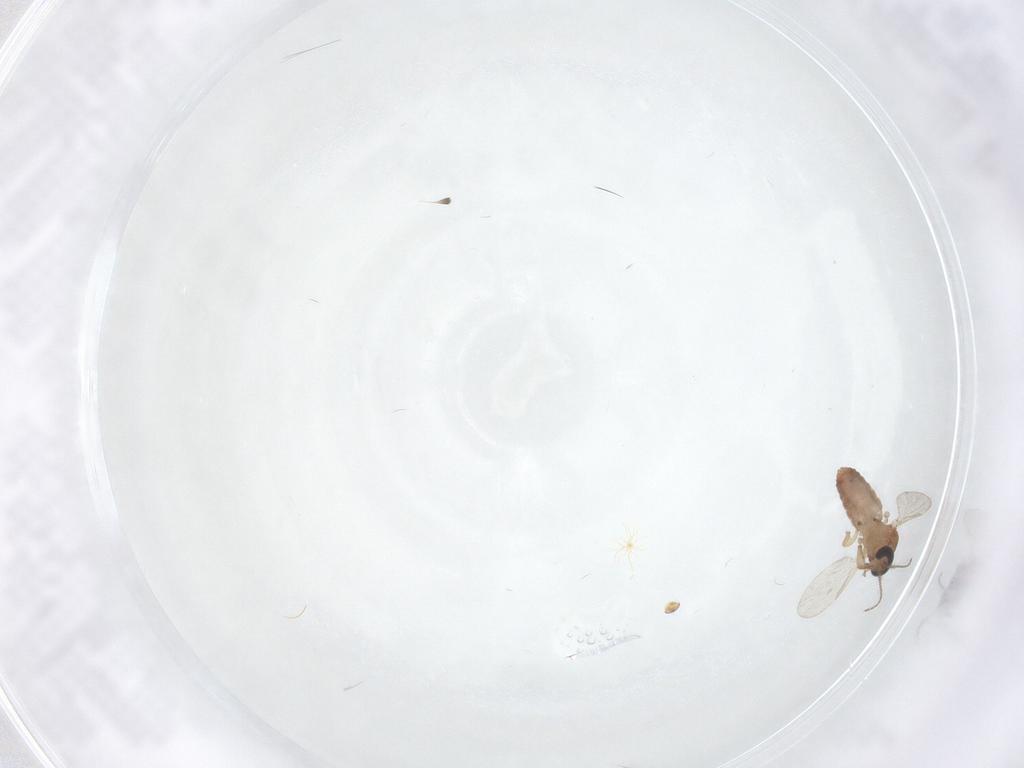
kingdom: Animalia
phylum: Arthropoda
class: Insecta
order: Diptera
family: Ceratopogonidae
